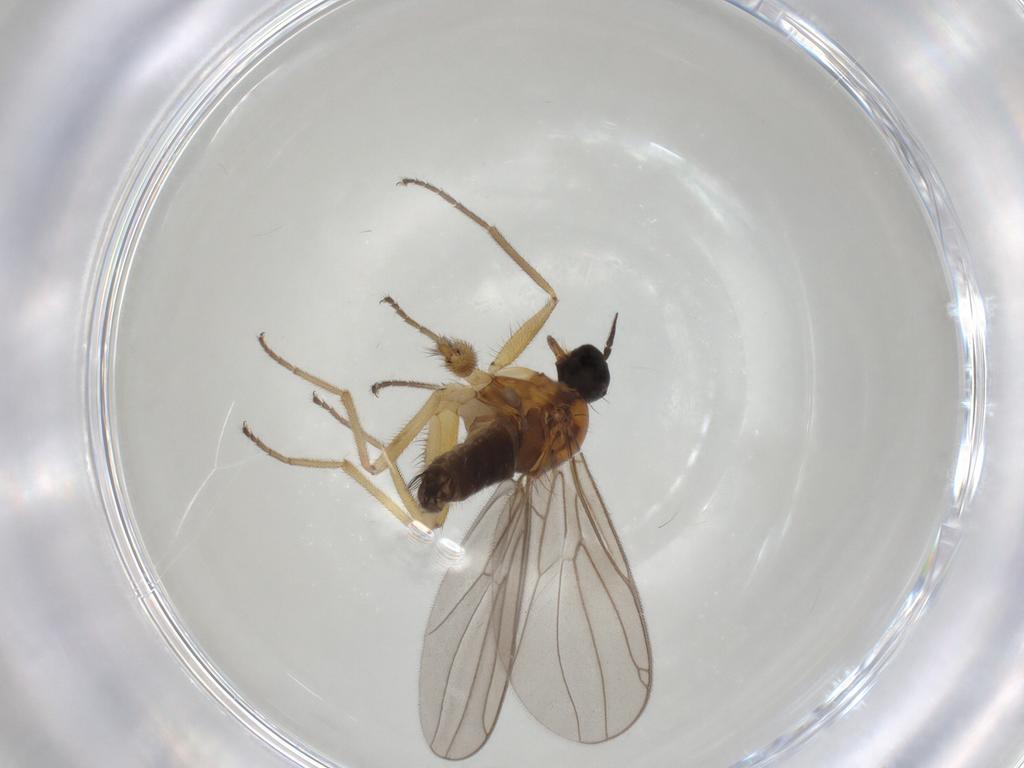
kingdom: Animalia
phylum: Arthropoda
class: Insecta
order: Diptera
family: Hybotidae
